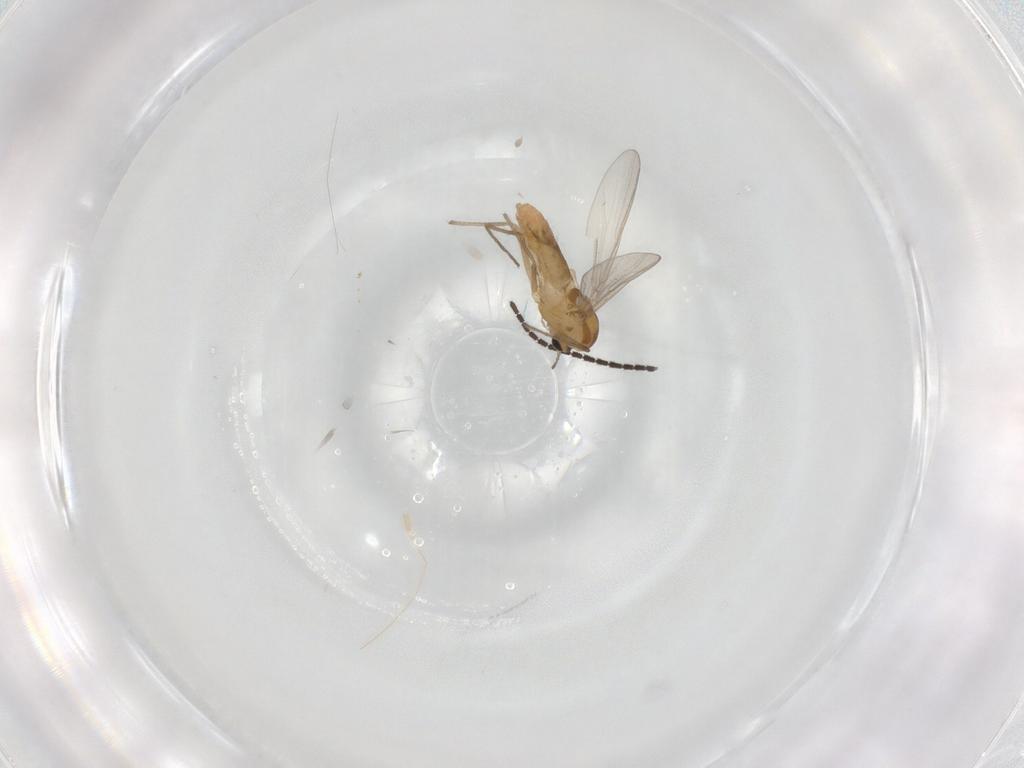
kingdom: Animalia
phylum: Arthropoda
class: Insecta
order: Diptera
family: Chironomidae
